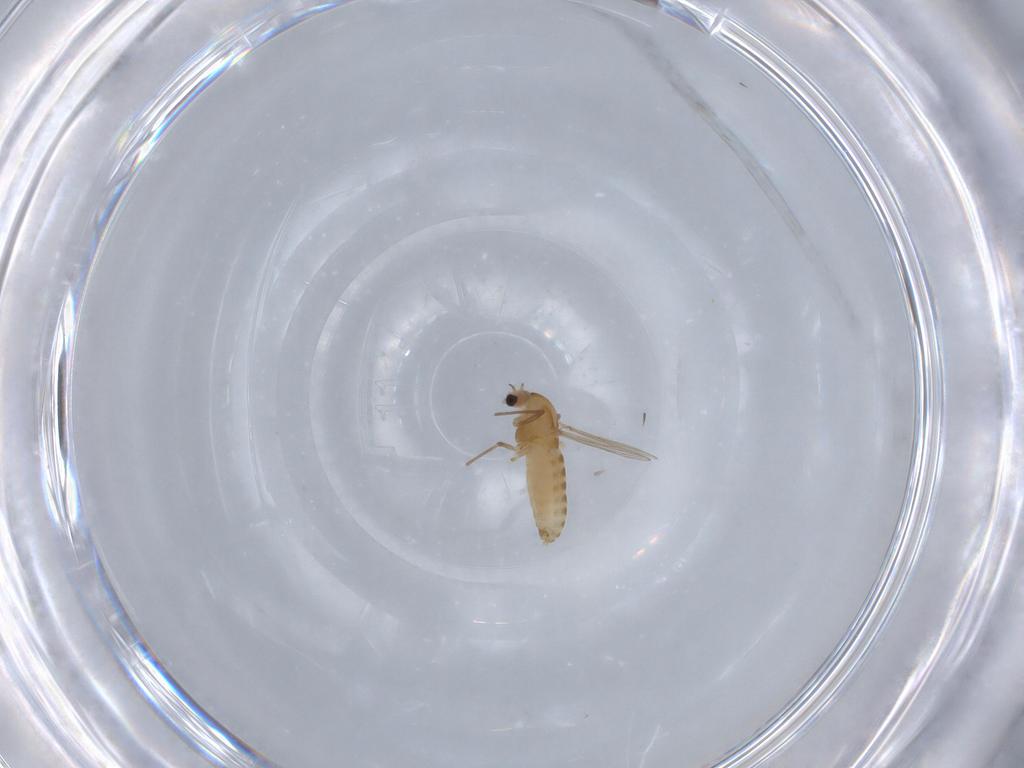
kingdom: Animalia
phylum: Arthropoda
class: Insecta
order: Diptera
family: Chironomidae
